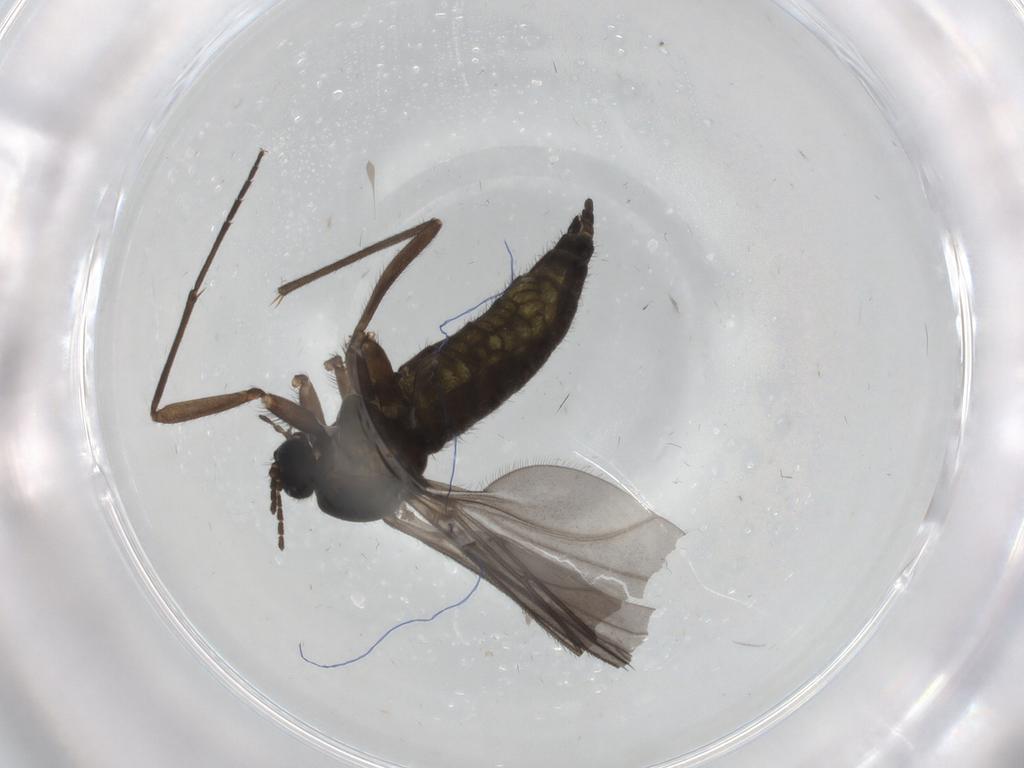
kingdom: Animalia
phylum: Arthropoda
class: Insecta
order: Diptera
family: Sciaridae
